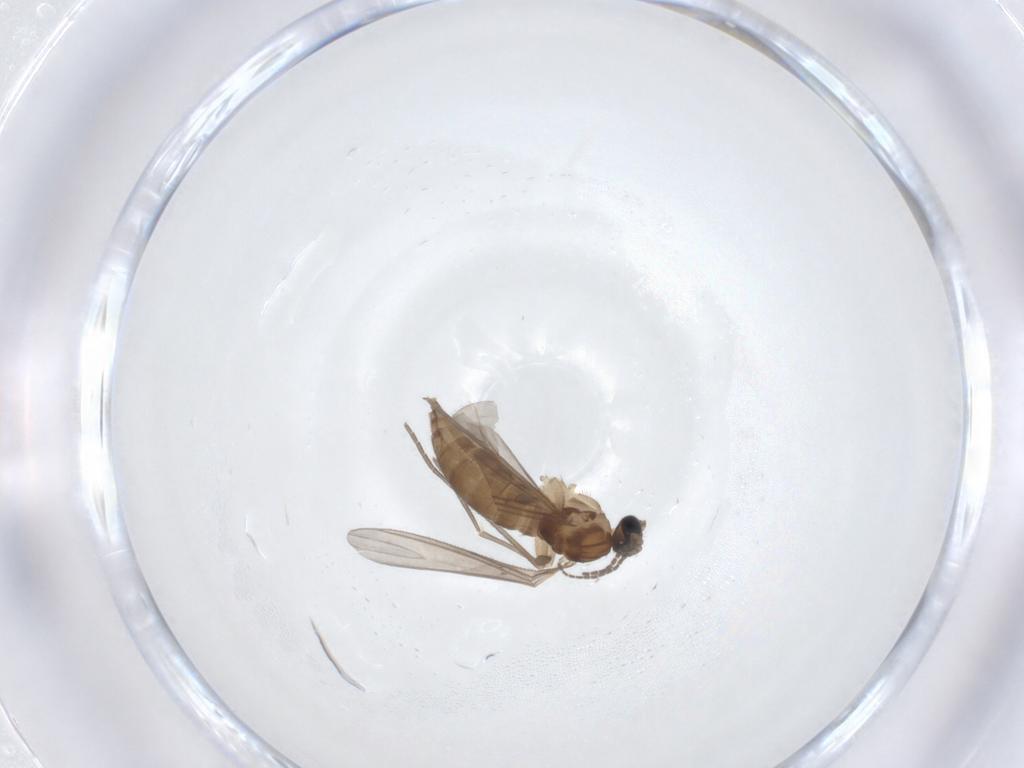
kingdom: Animalia
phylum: Arthropoda
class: Insecta
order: Diptera
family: Sciaridae
